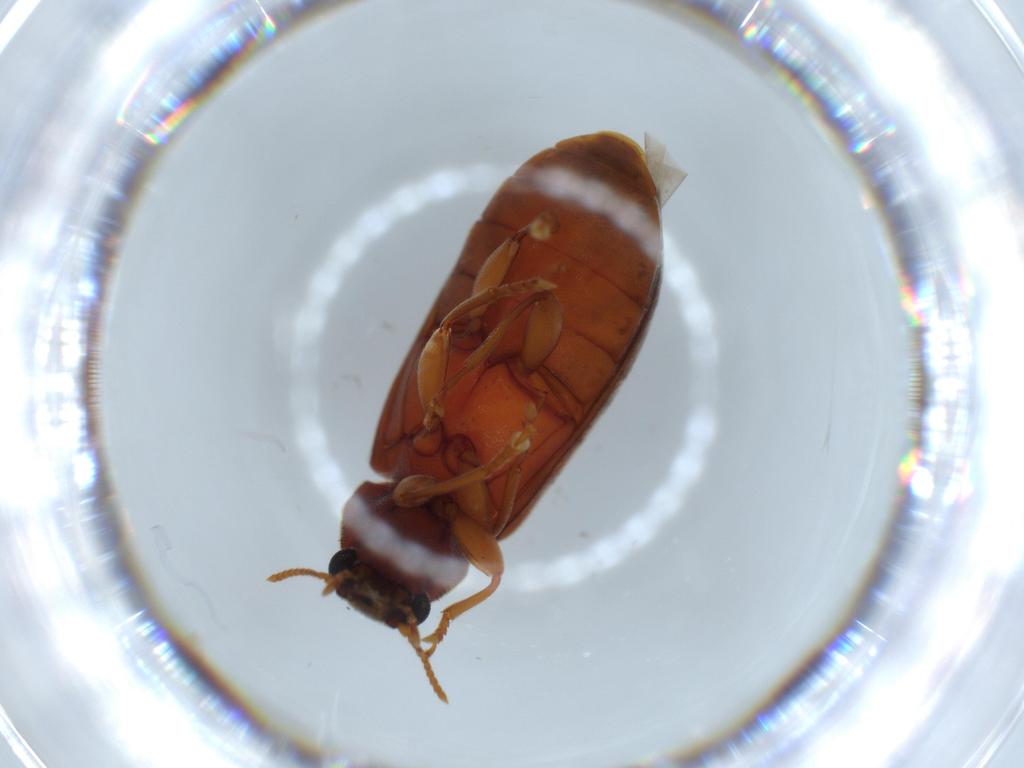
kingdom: Animalia
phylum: Arthropoda
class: Insecta
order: Coleoptera
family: Mycteridae
